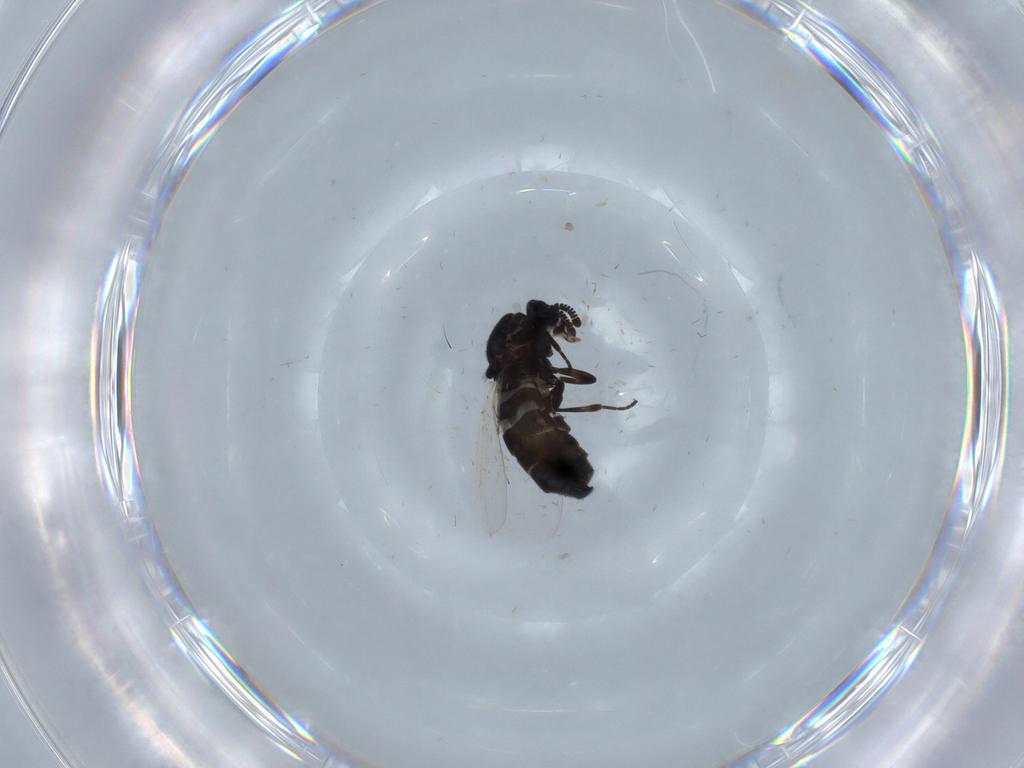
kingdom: Animalia
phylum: Arthropoda
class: Insecta
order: Diptera
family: Scatopsidae
